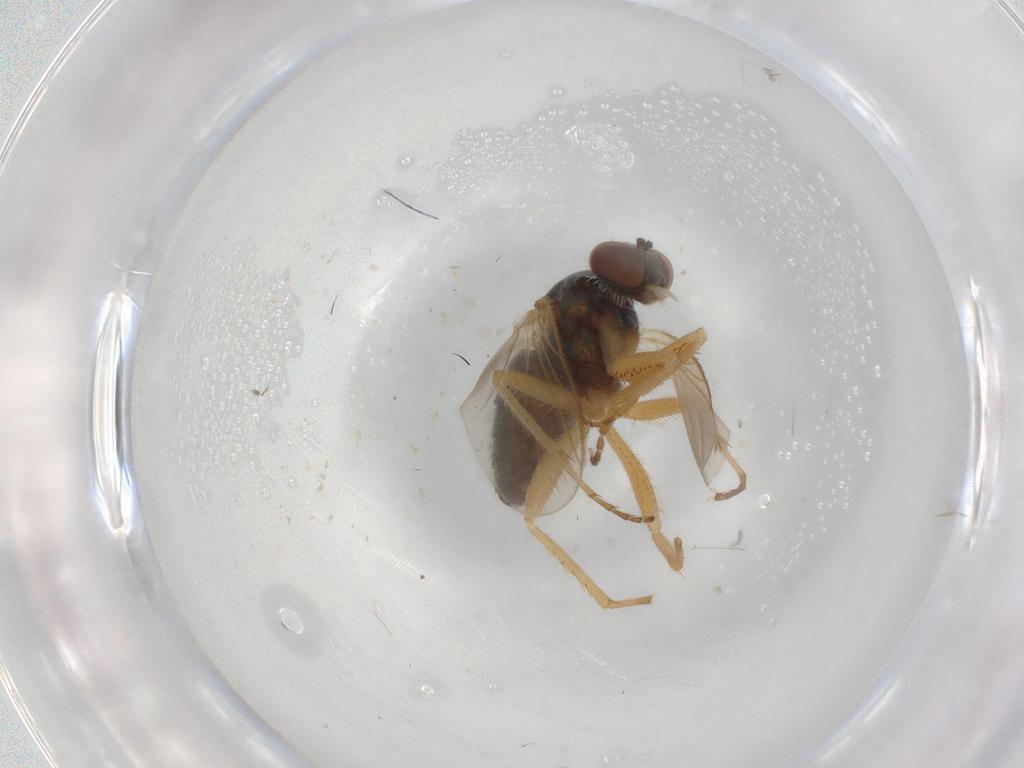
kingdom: Animalia
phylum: Arthropoda
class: Insecta
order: Diptera
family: Dolichopodidae
